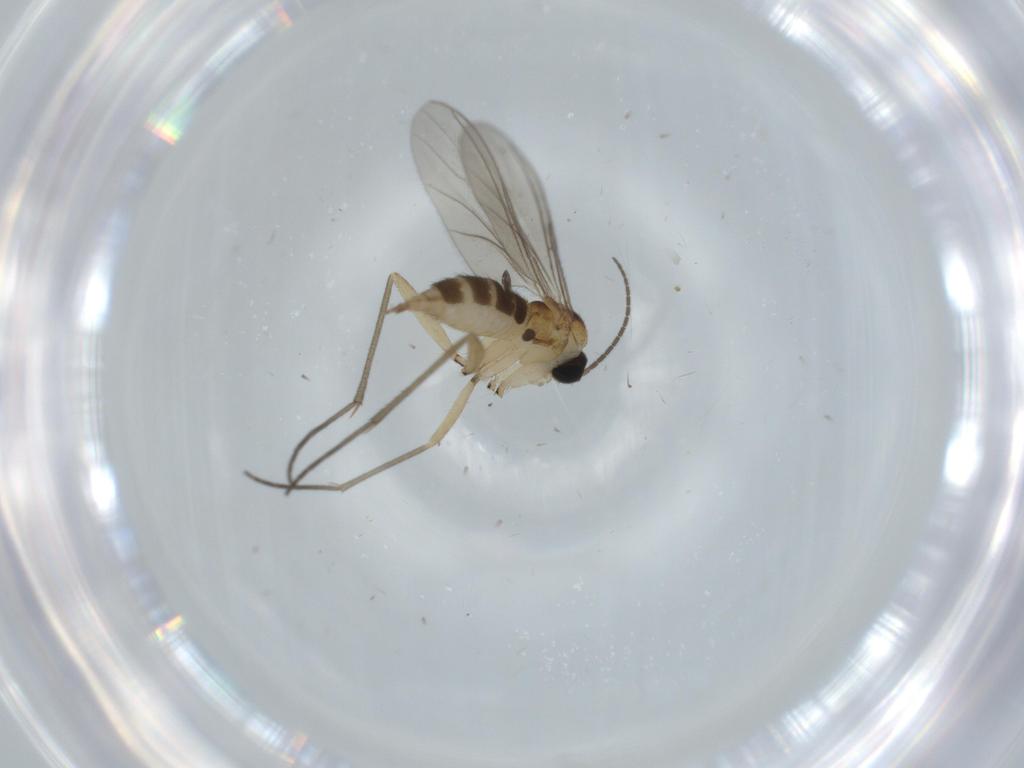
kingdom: Animalia
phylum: Arthropoda
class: Insecta
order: Diptera
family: Sciaridae
